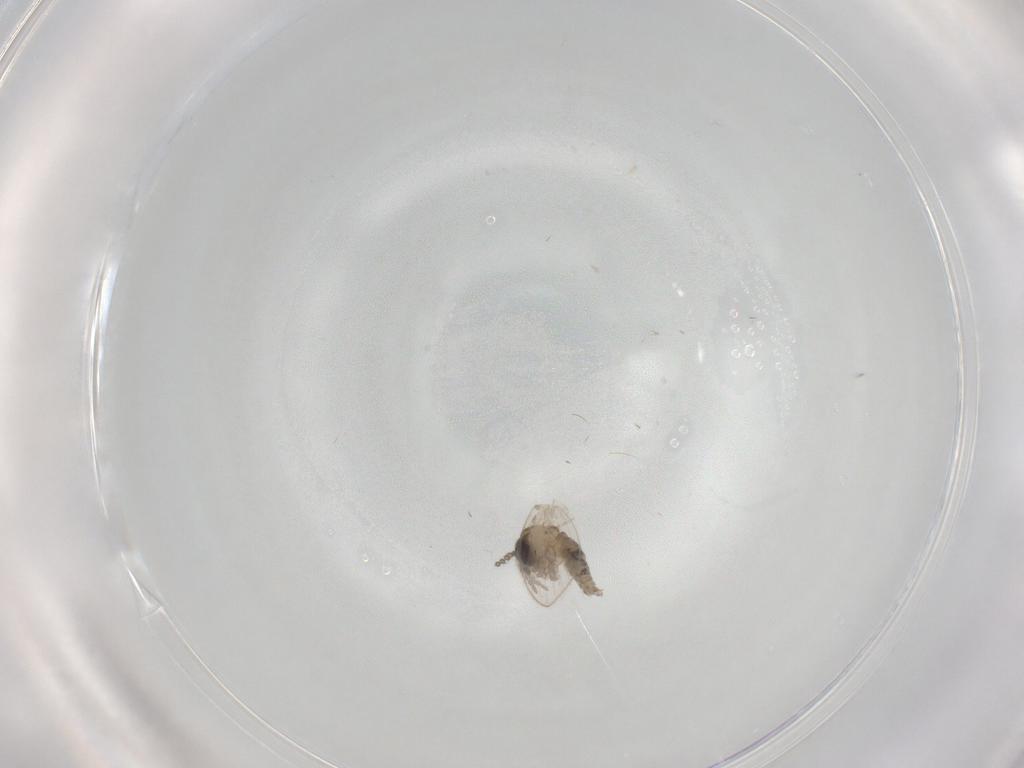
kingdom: Animalia
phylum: Arthropoda
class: Insecta
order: Diptera
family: Psychodidae
